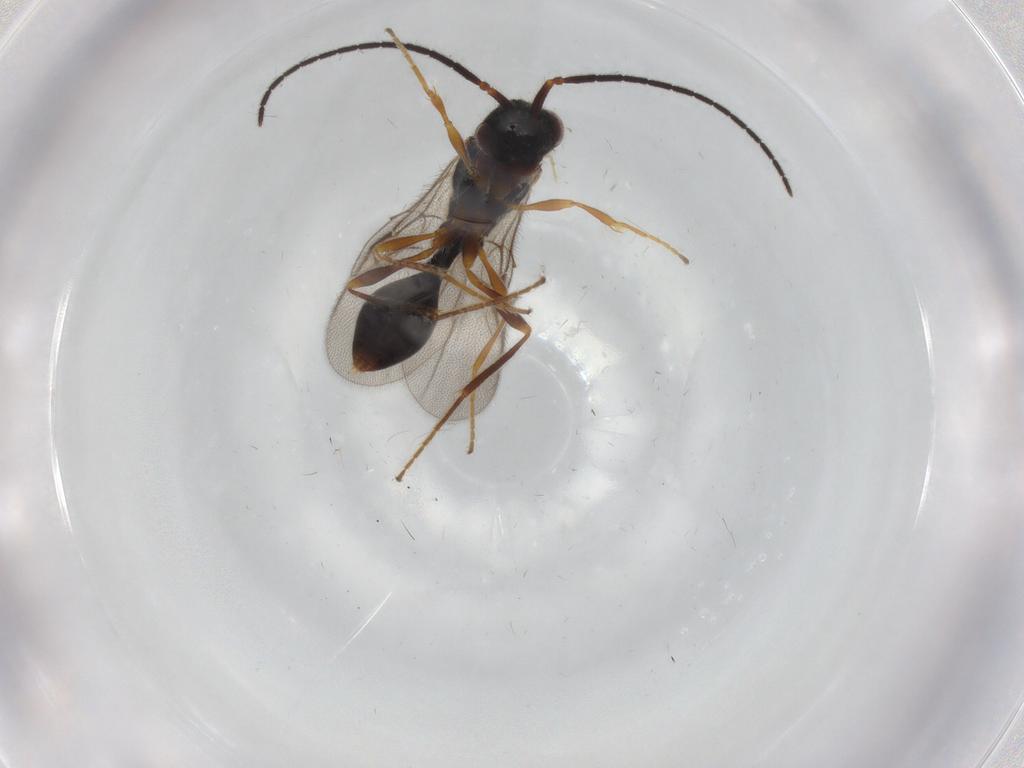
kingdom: Animalia
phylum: Arthropoda
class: Insecta
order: Hymenoptera
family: Diapriidae
